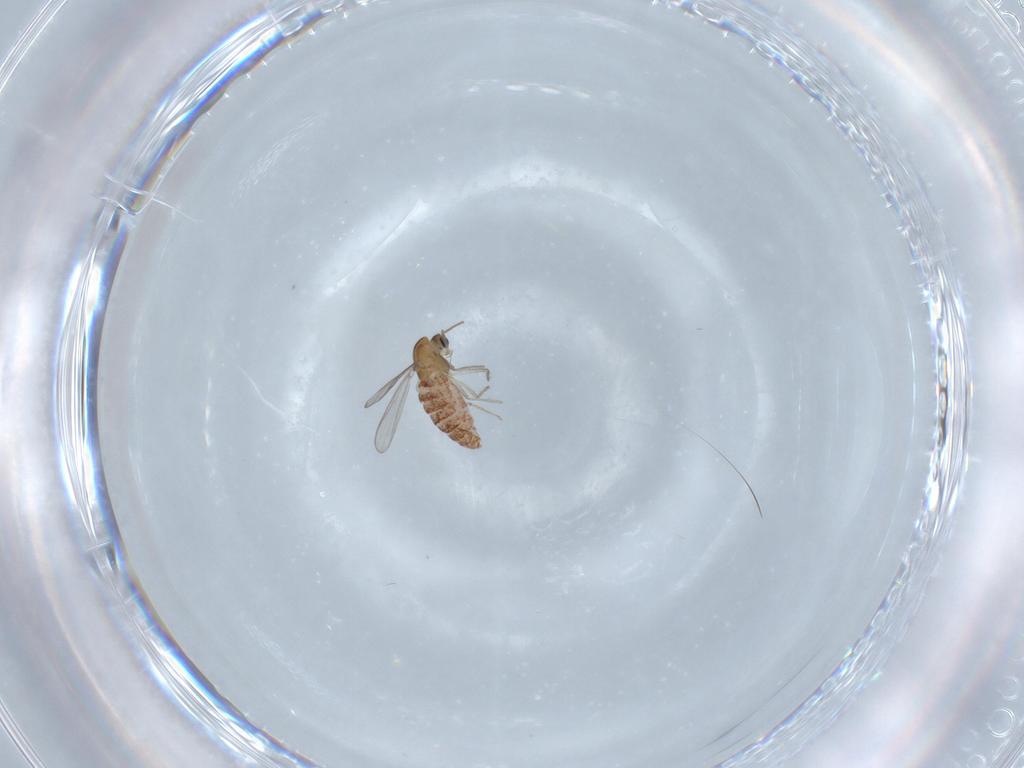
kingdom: Animalia
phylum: Arthropoda
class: Insecta
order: Diptera
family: Chironomidae
